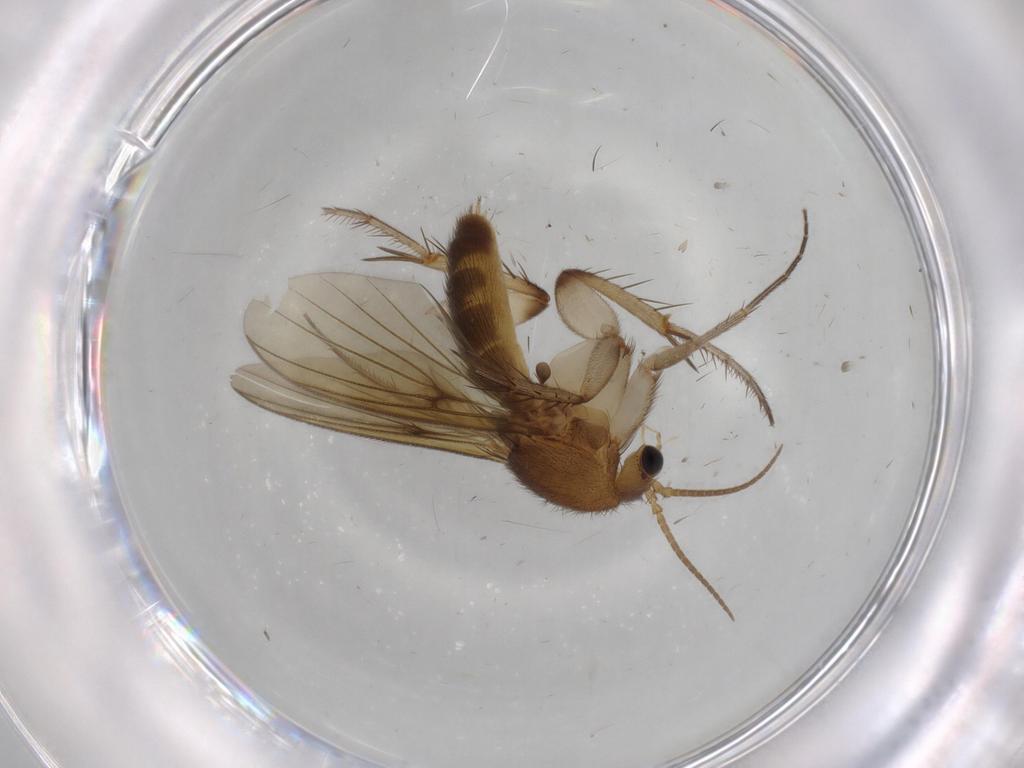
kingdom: Animalia
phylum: Arthropoda
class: Insecta
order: Diptera
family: Mycetophilidae
